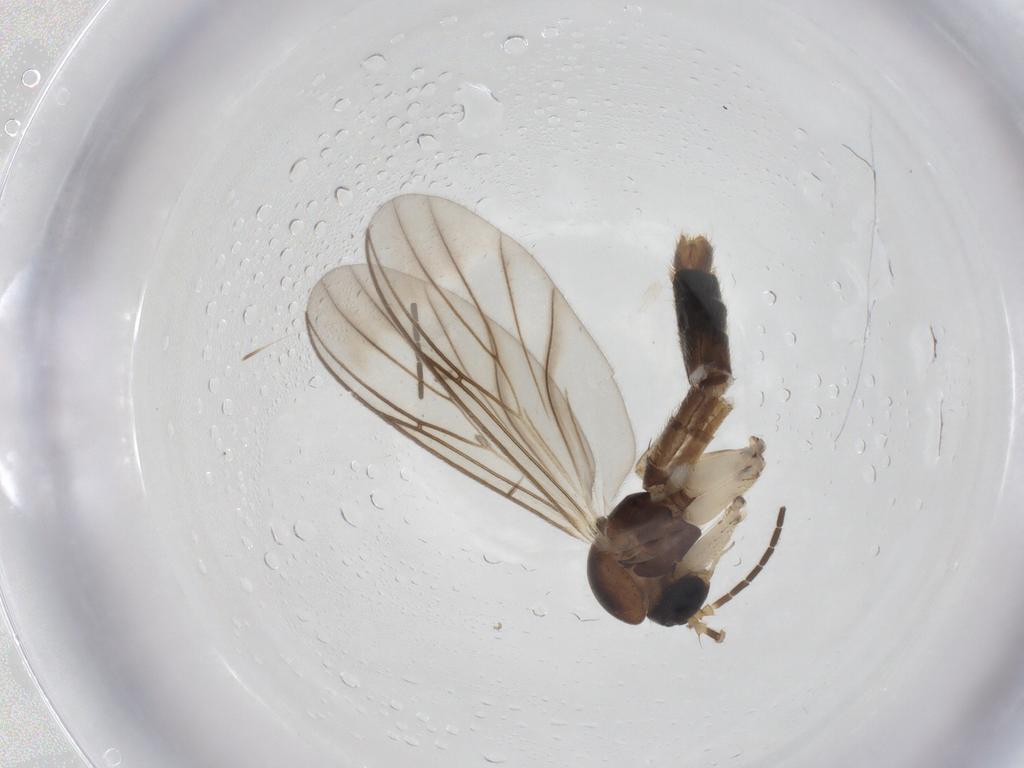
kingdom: Animalia
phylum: Arthropoda
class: Insecta
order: Diptera
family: Mycetophilidae
